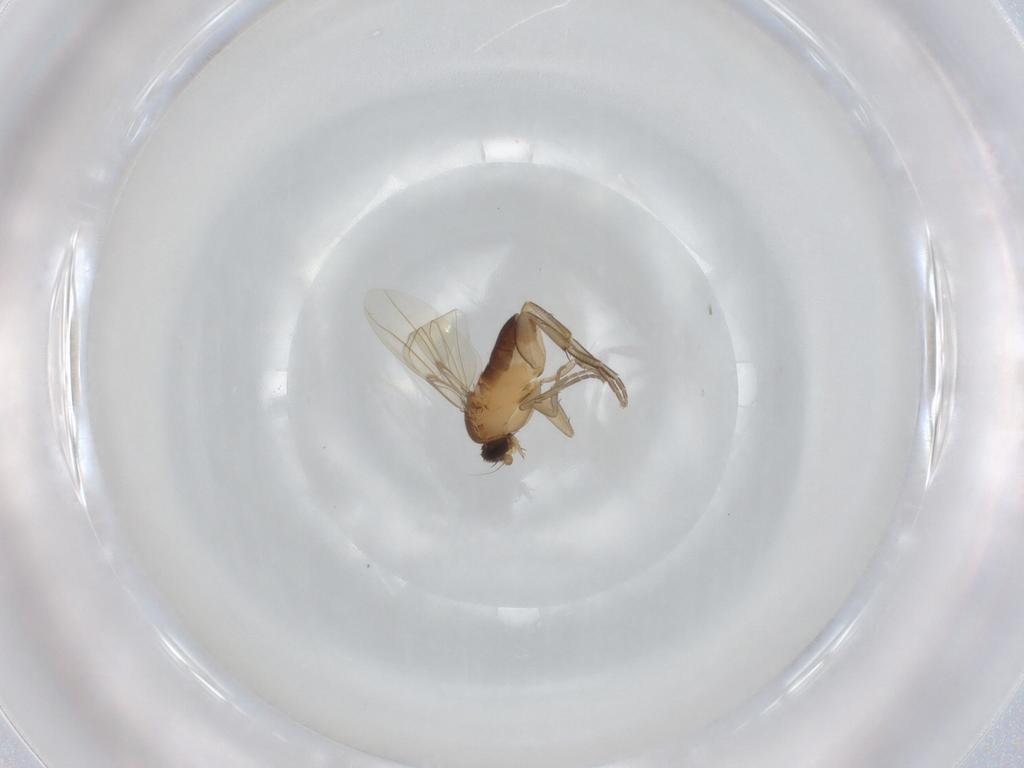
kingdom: Animalia
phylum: Arthropoda
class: Insecta
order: Diptera
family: Phoridae
